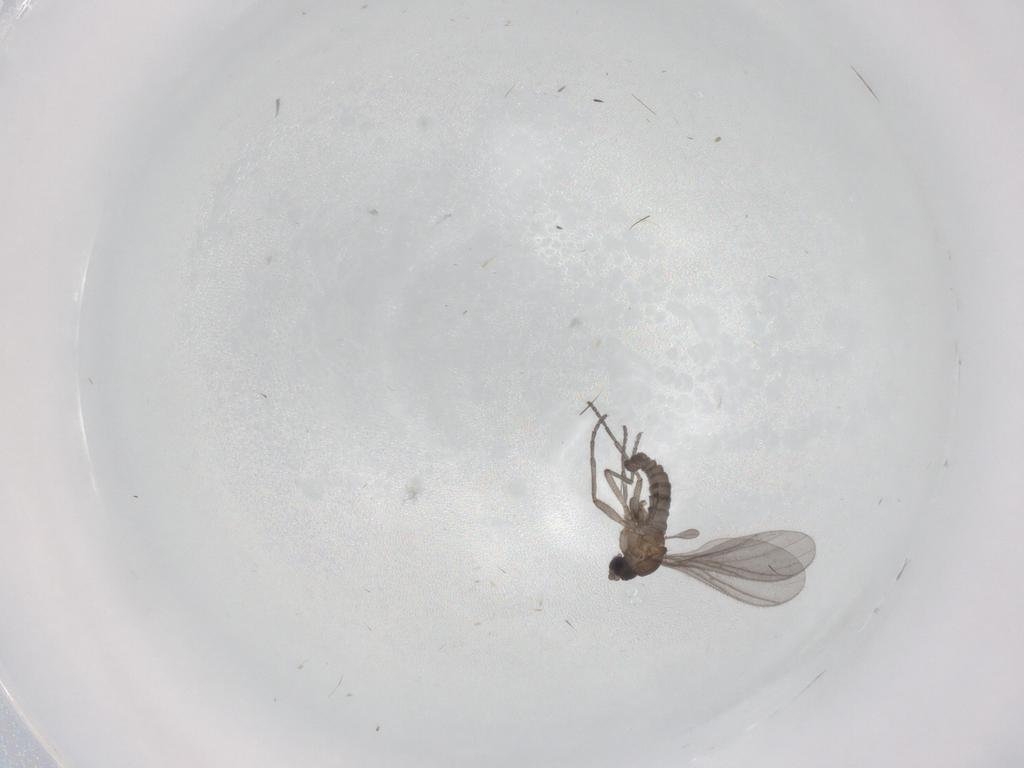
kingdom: Animalia
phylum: Arthropoda
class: Insecta
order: Diptera
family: Sciaridae
